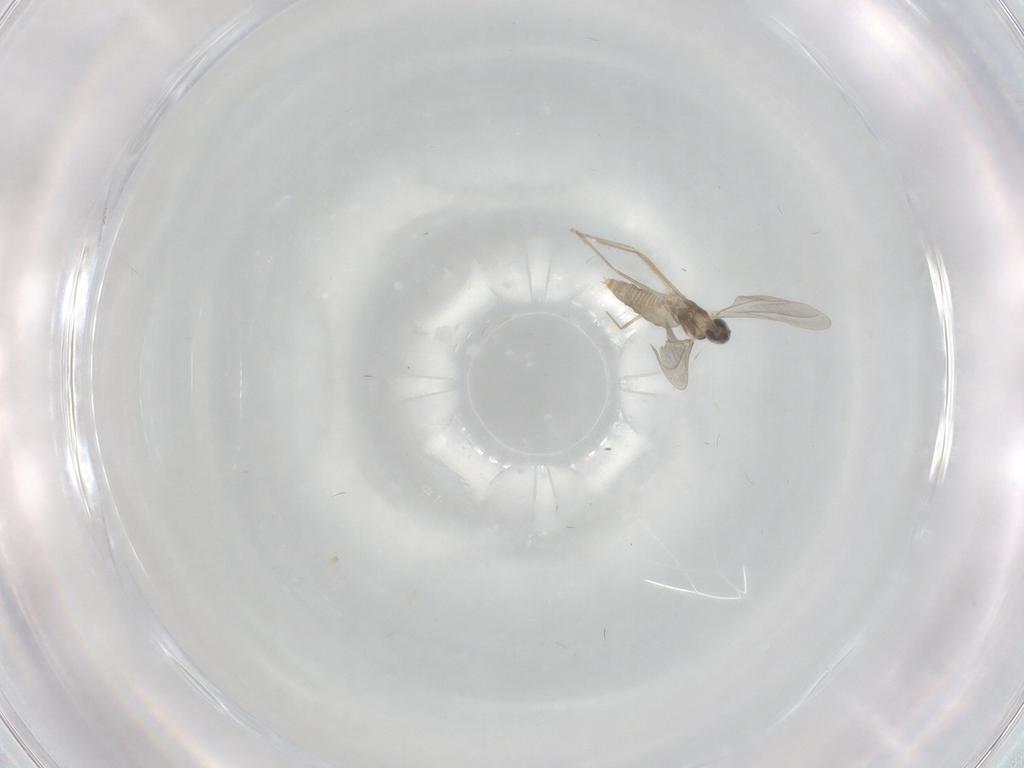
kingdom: Animalia
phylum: Arthropoda
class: Insecta
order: Diptera
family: Cecidomyiidae
